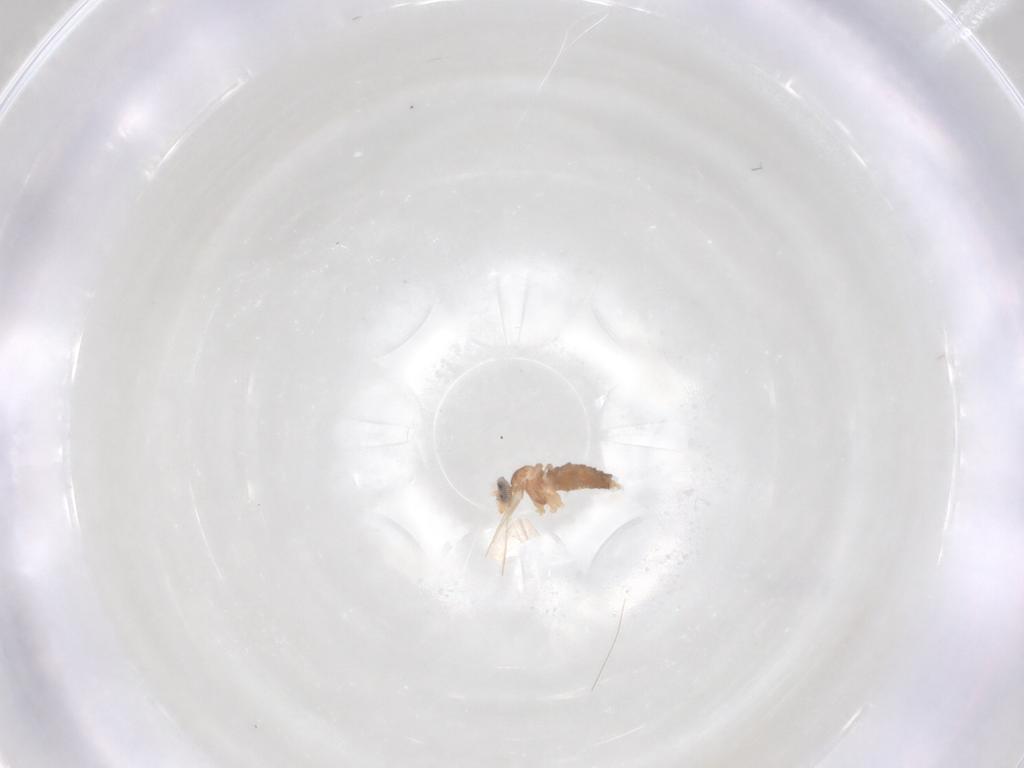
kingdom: Animalia
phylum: Arthropoda
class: Insecta
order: Diptera
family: Cecidomyiidae
